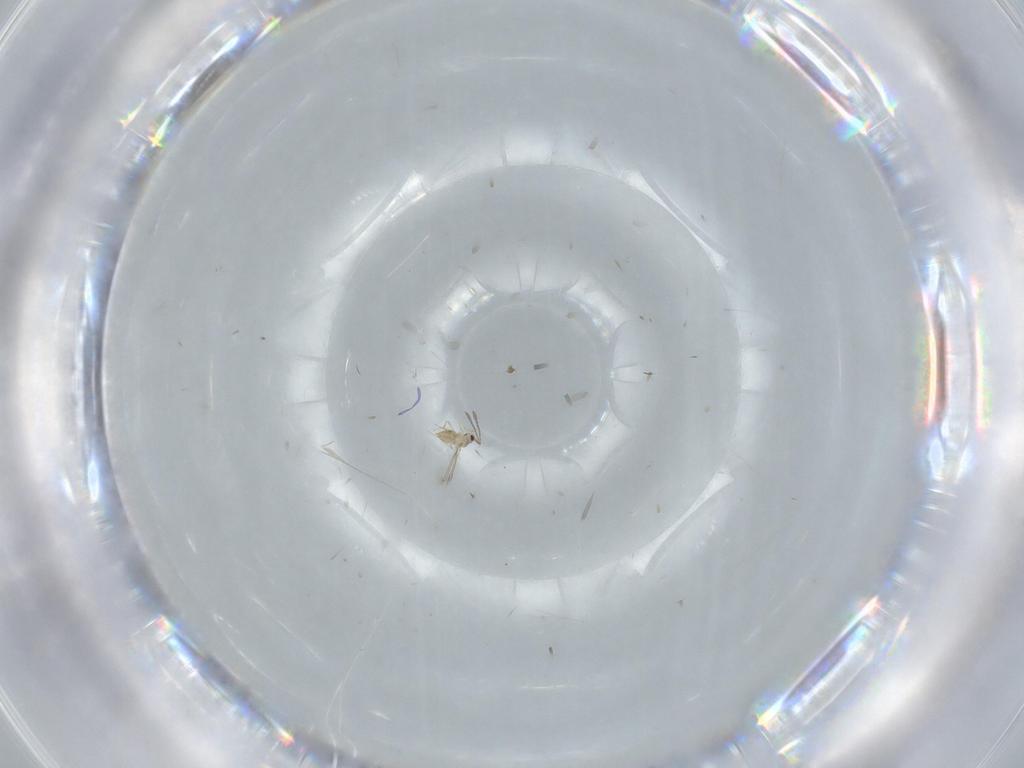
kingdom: Animalia
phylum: Arthropoda
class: Insecta
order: Hymenoptera
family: Mymaridae
